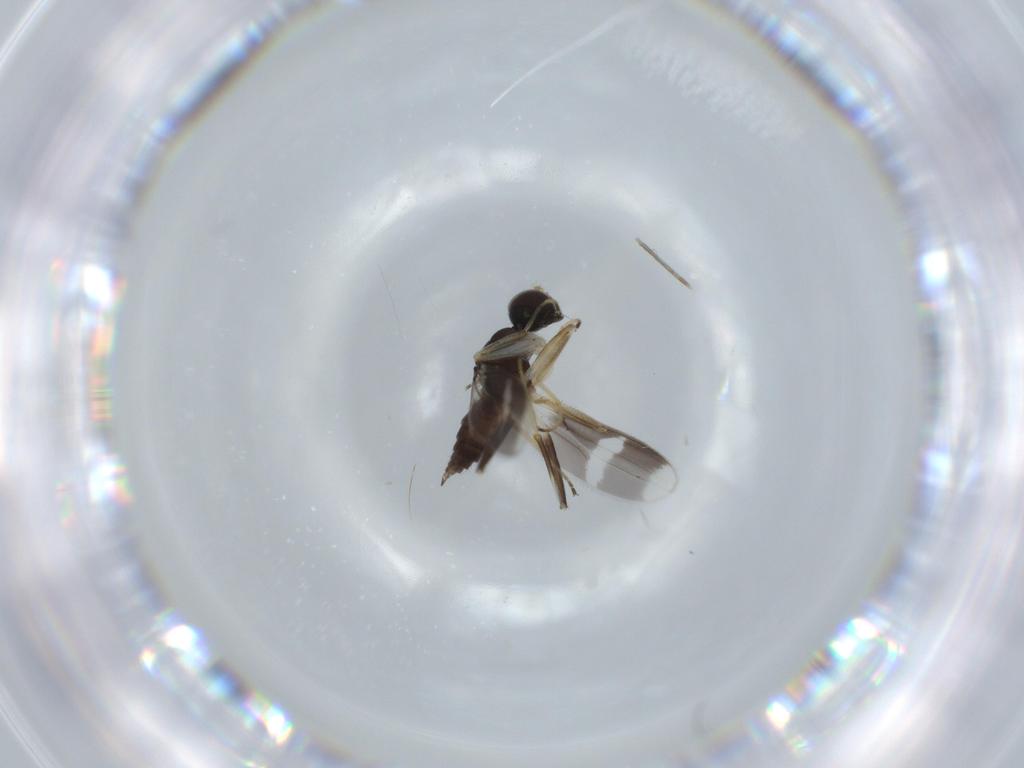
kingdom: Animalia
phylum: Arthropoda
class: Insecta
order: Diptera
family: Hybotidae
